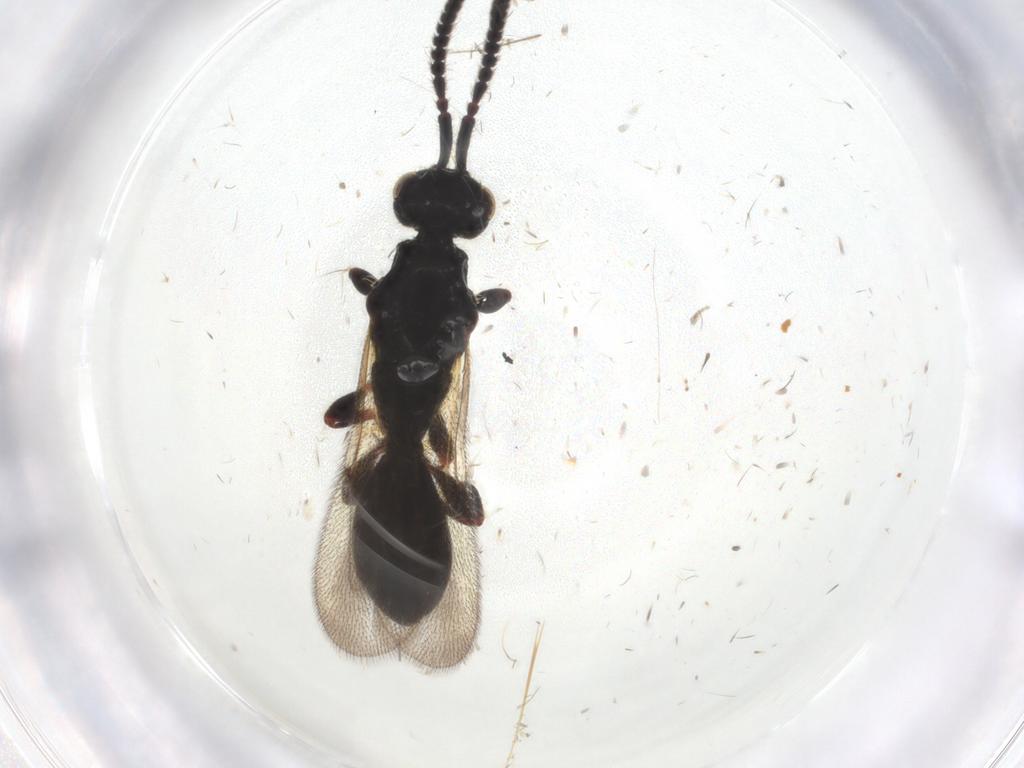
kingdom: Animalia
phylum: Arthropoda
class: Insecta
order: Hymenoptera
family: Diapriidae
